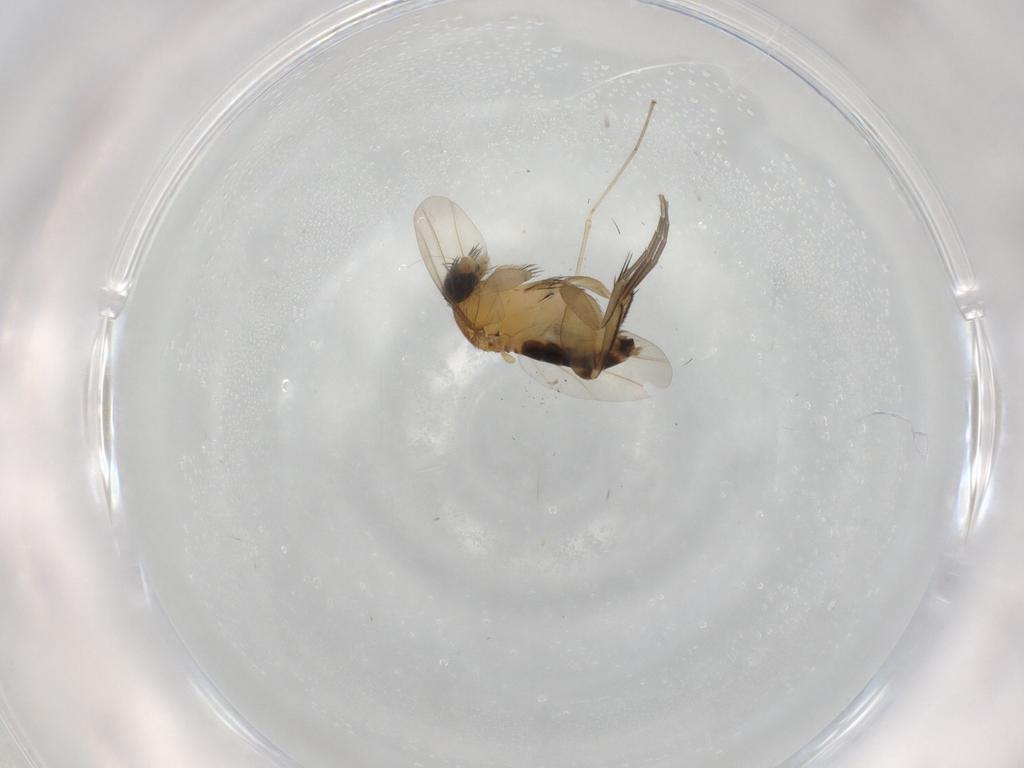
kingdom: Animalia
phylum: Arthropoda
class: Insecta
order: Diptera
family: Phoridae
